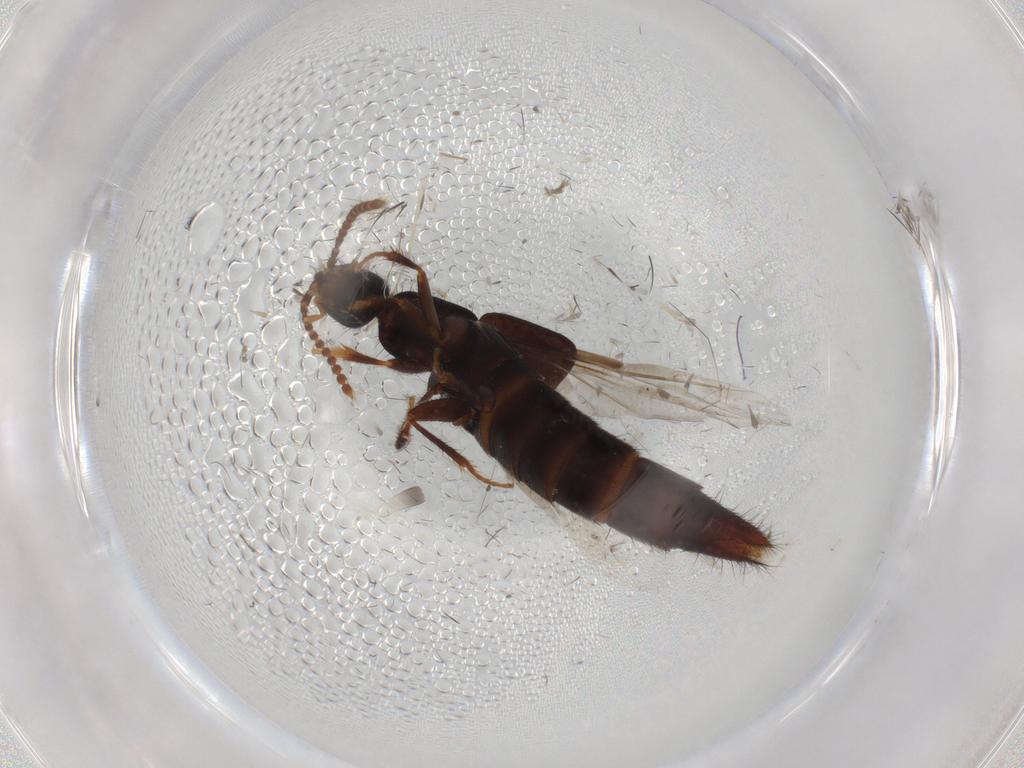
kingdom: Animalia
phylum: Arthropoda
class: Insecta
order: Coleoptera
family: Staphylinidae
